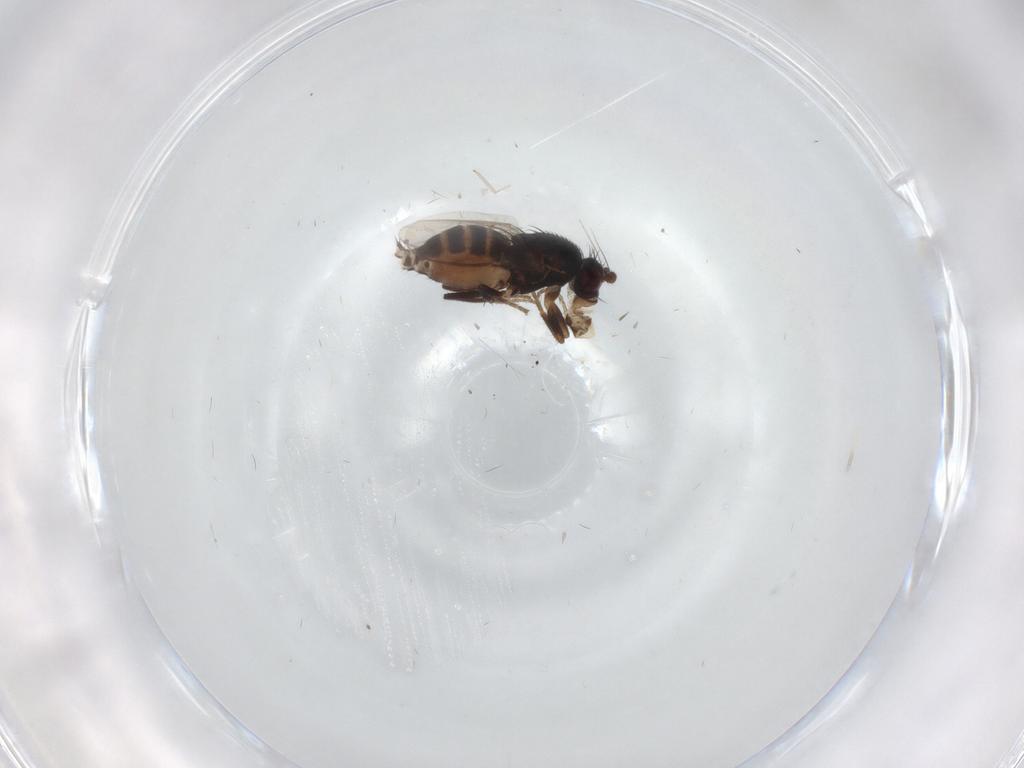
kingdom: Animalia
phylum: Arthropoda
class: Insecta
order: Diptera
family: Sphaeroceridae
